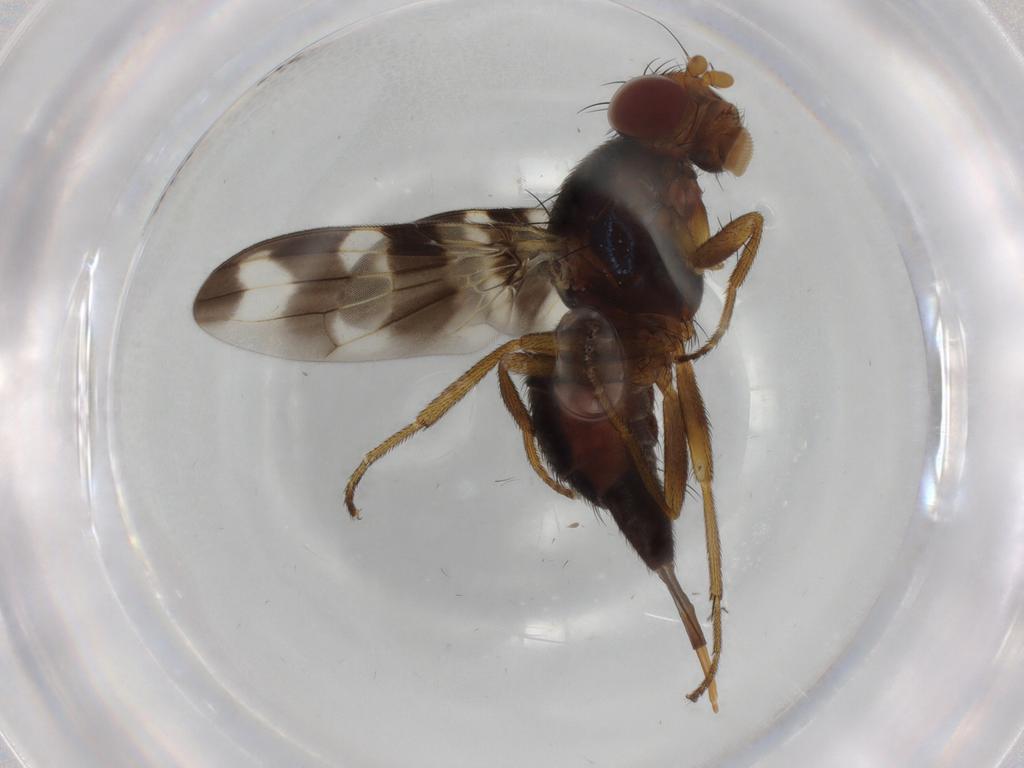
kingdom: Animalia
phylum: Arthropoda
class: Insecta
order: Diptera
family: Ulidiidae
